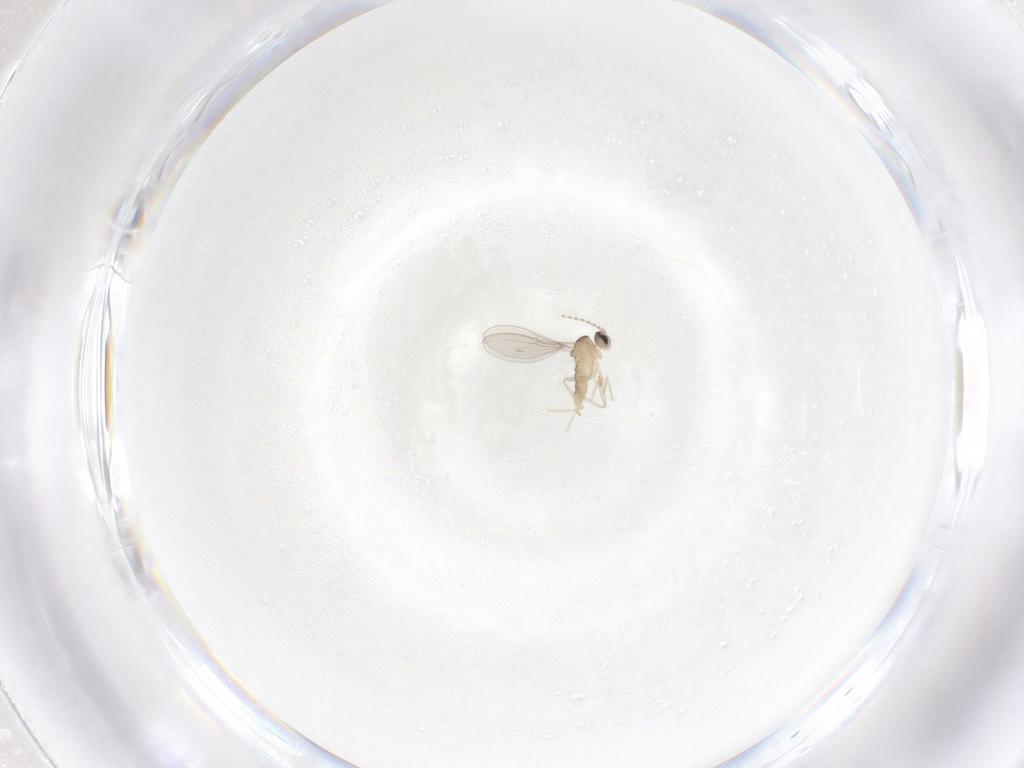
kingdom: Animalia
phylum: Arthropoda
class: Insecta
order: Diptera
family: Cecidomyiidae
